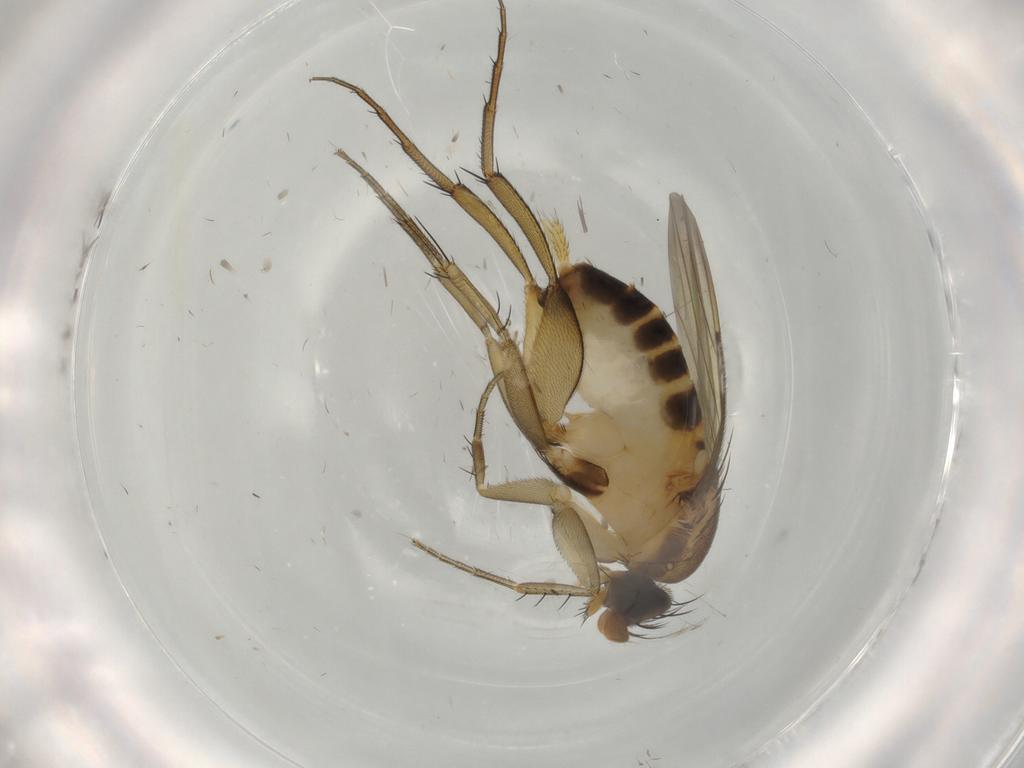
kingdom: Animalia
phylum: Arthropoda
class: Insecta
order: Diptera
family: Phoridae
